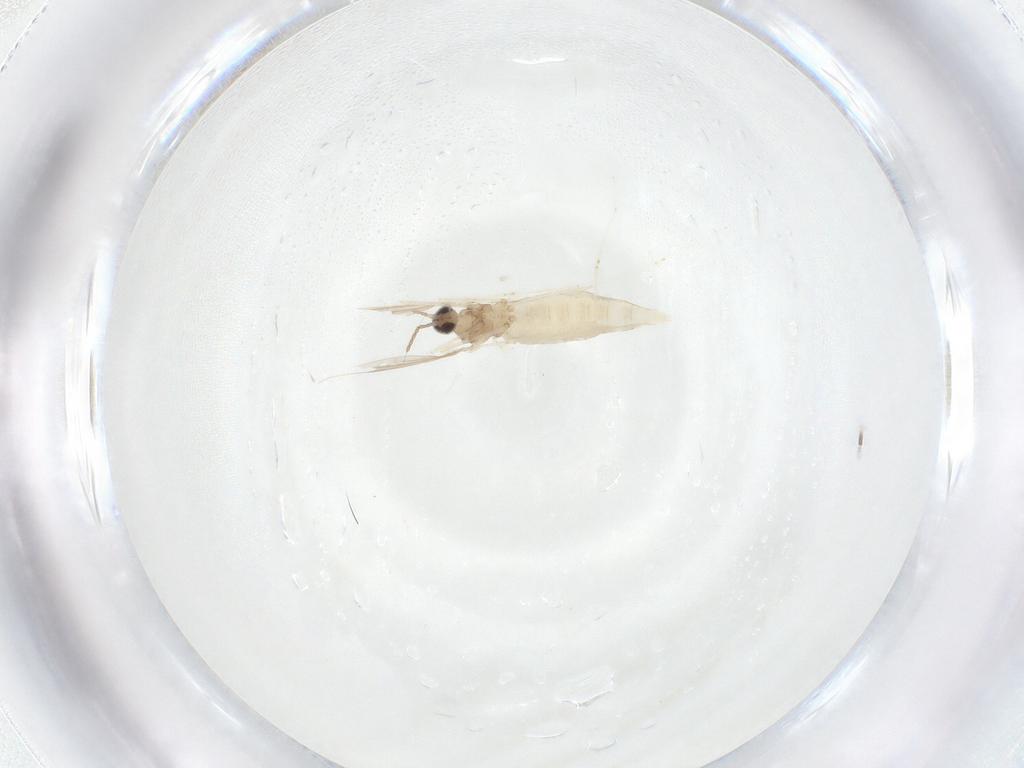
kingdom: Animalia
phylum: Arthropoda
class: Insecta
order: Diptera
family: Cecidomyiidae
